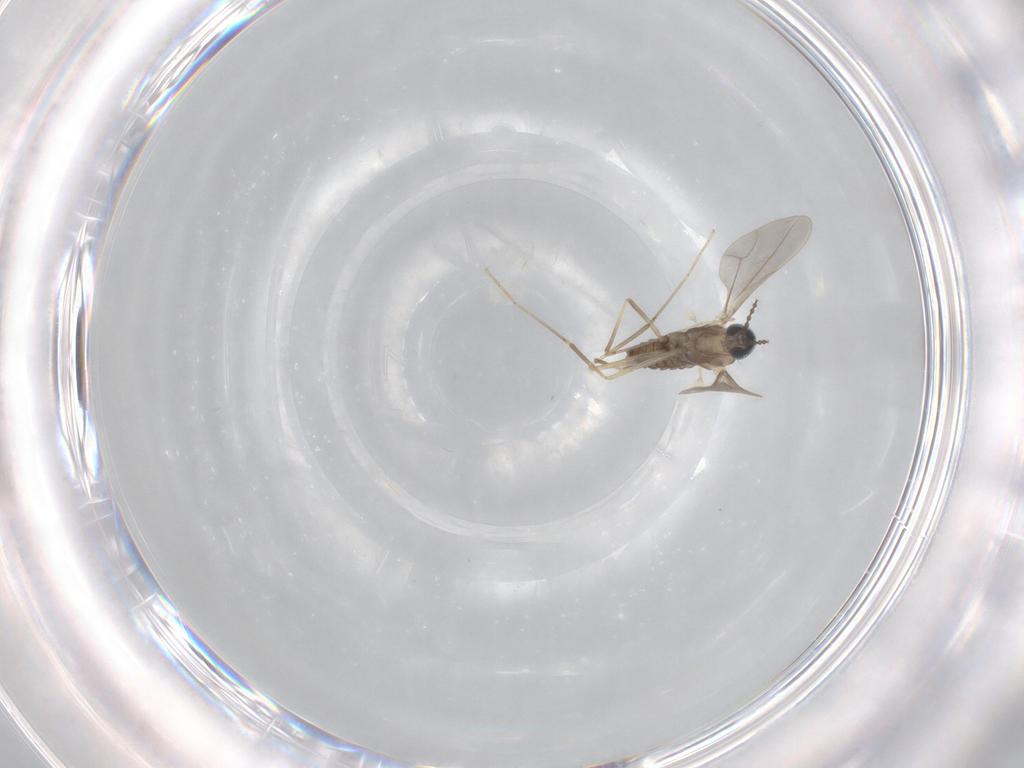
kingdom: Animalia
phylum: Arthropoda
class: Insecta
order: Diptera
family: Cecidomyiidae
